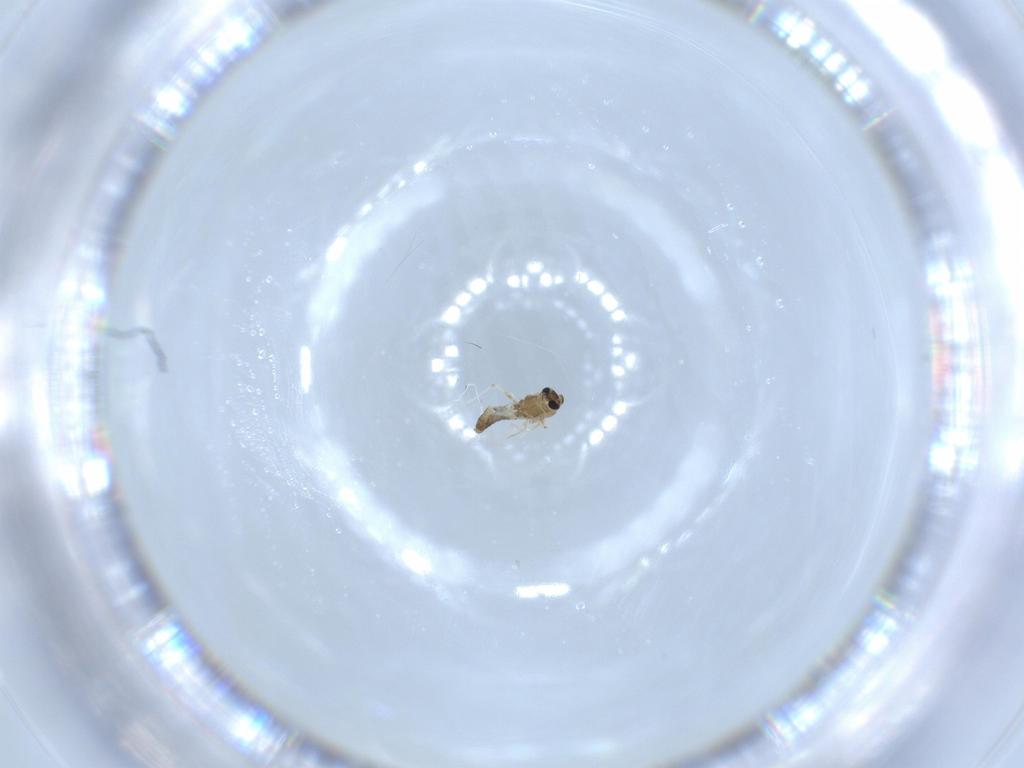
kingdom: Animalia
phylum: Arthropoda
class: Insecta
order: Diptera
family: Chironomidae
